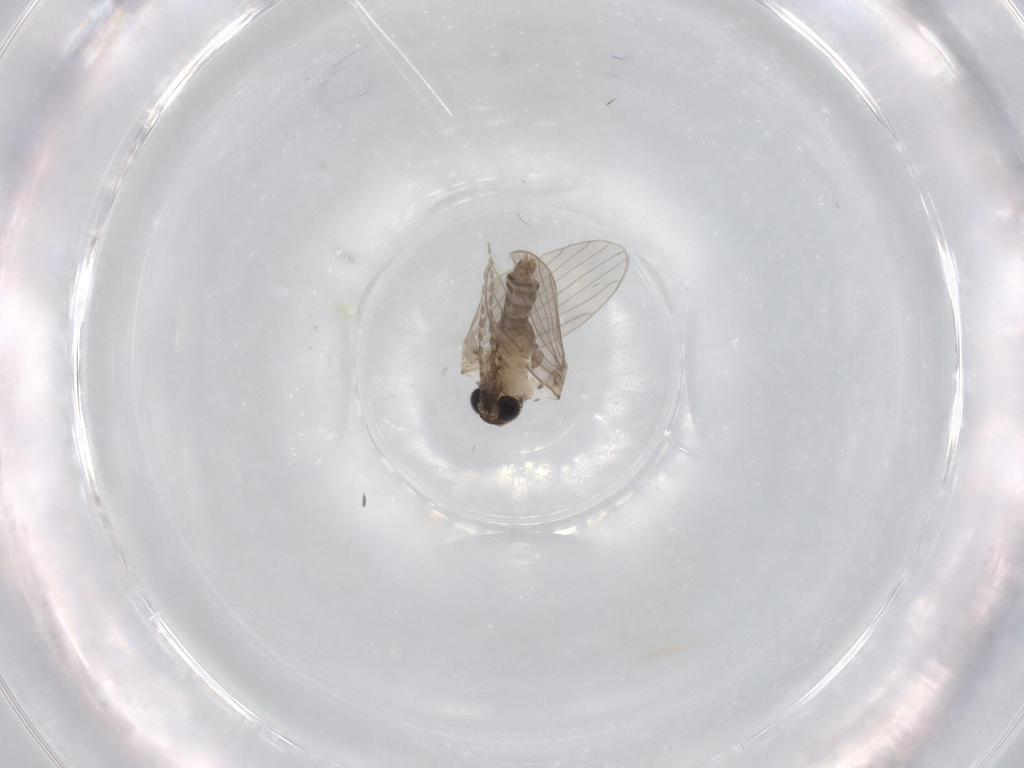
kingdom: Animalia
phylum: Arthropoda
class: Insecta
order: Diptera
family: Phoridae
